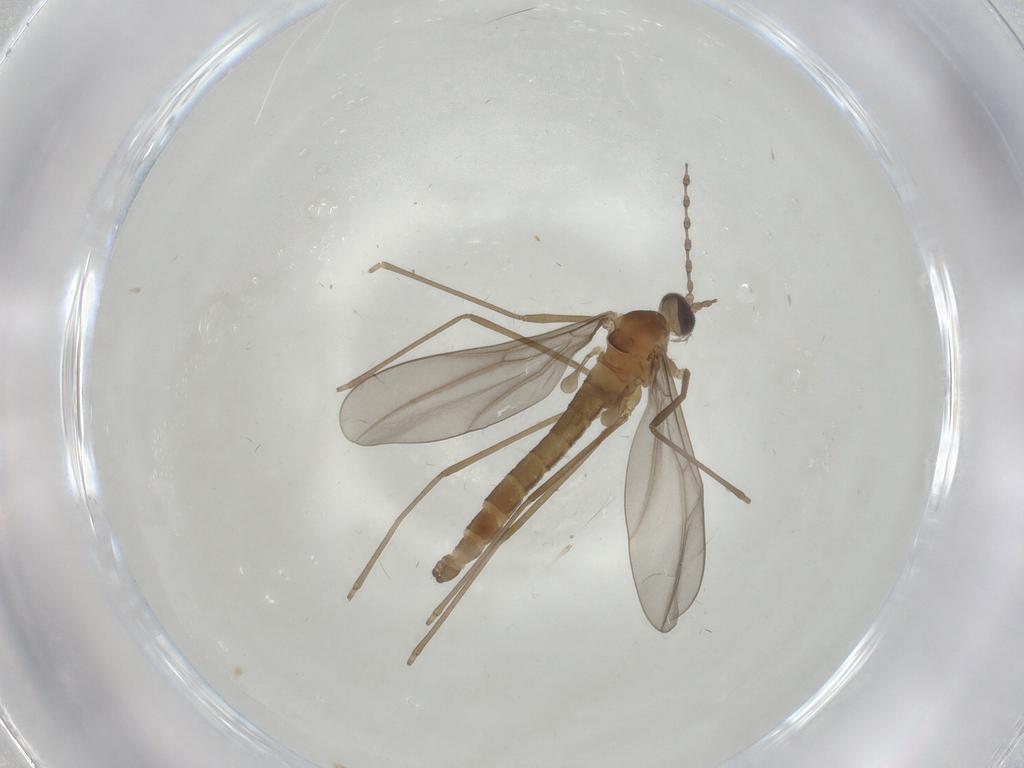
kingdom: Animalia
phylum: Arthropoda
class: Insecta
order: Diptera
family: Cecidomyiidae
